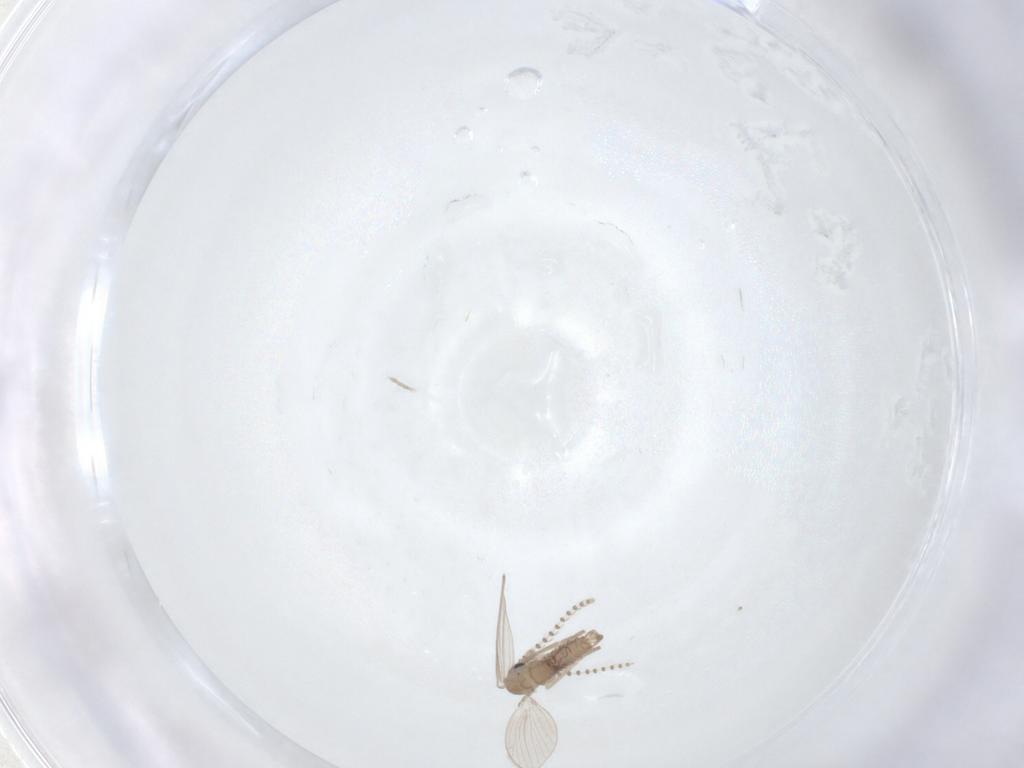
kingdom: Animalia
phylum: Arthropoda
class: Insecta
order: Diptera
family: Psychodidae
